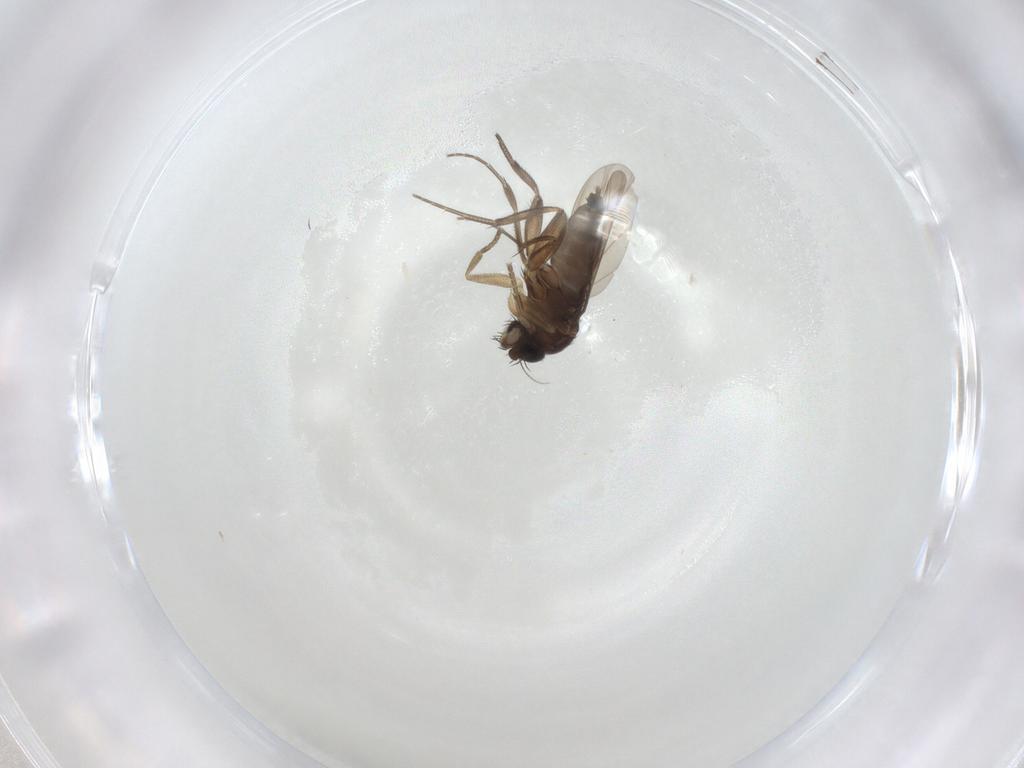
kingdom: Animalia
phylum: Arthropoda
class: Insecta
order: Diptera
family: Phoridae
